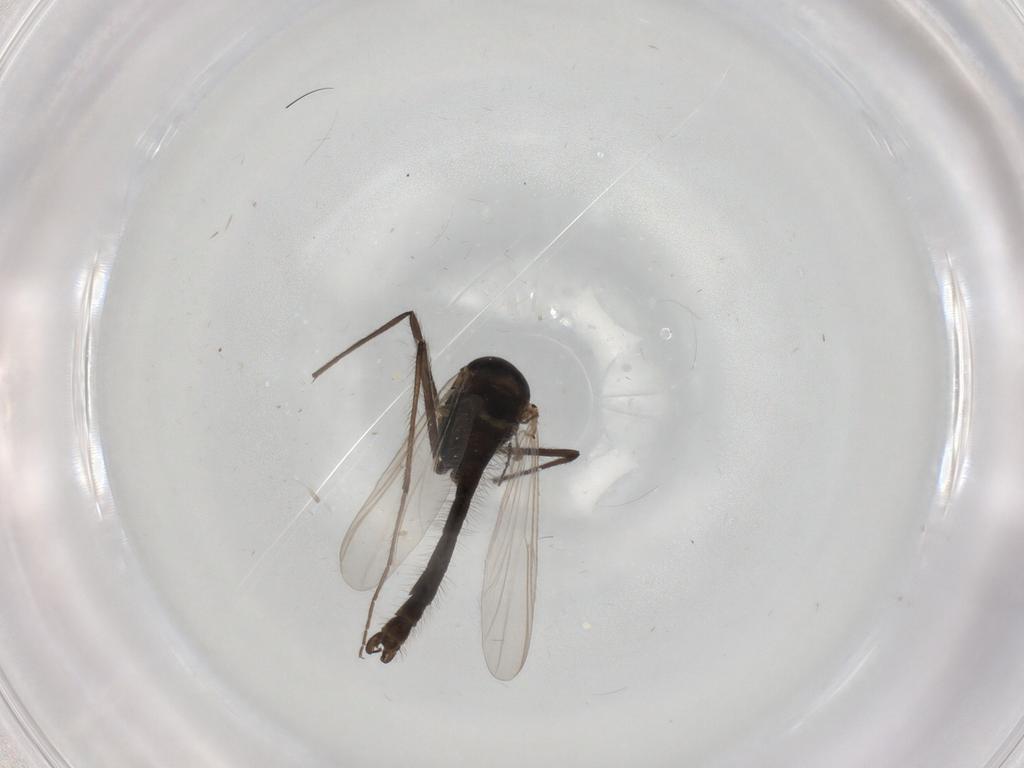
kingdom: Animalia
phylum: Arthropoda
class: Insecta
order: Diptera
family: Chironomidae
